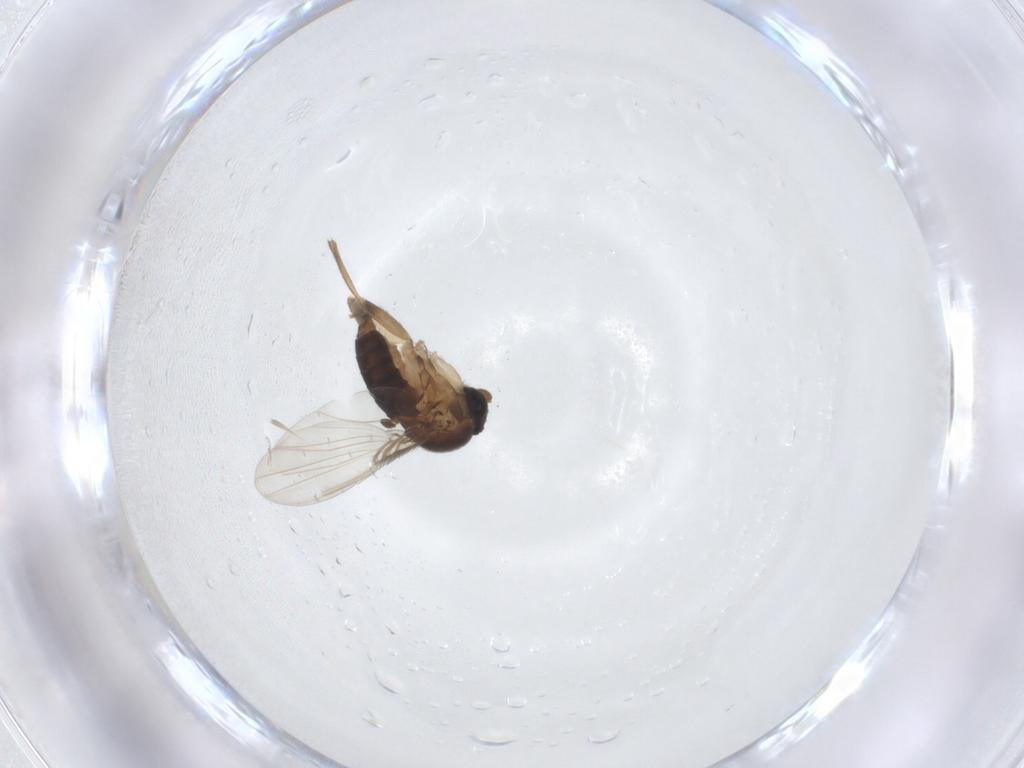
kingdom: Animalia
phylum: Arthropoda
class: Insecta
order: Diptera
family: Phoridae
